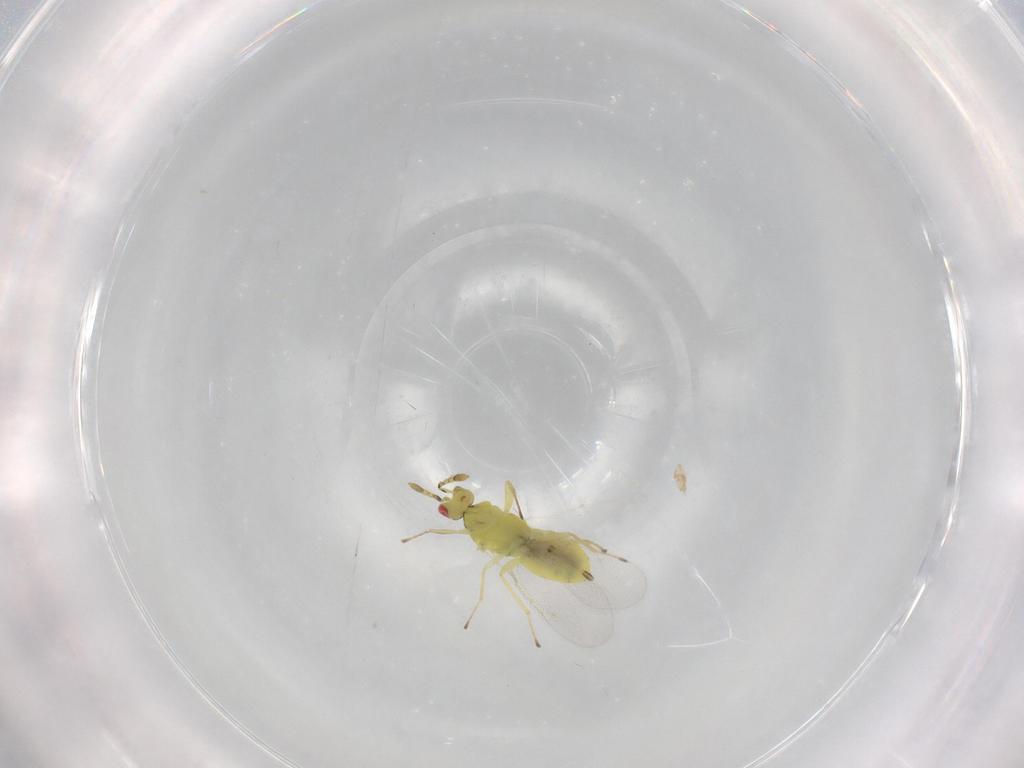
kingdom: Animalia
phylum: Arthropoda
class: Insecta
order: Hymenoptera
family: Eulophidae
